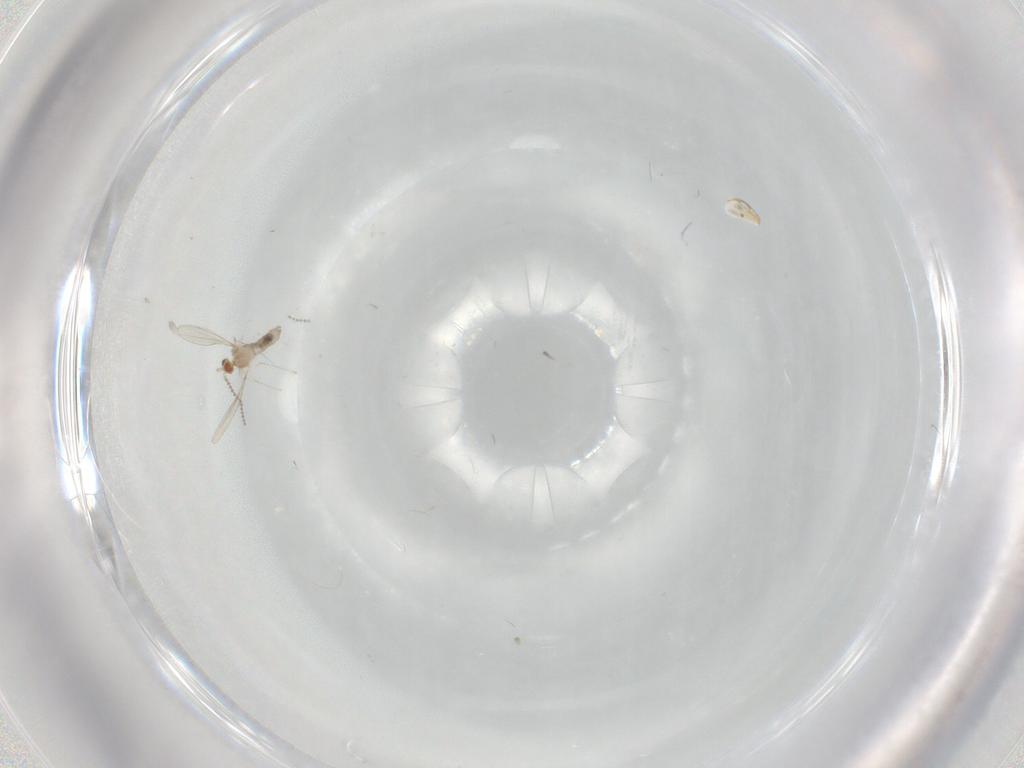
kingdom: Animalia
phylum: Arthropoda
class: Insecta
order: Diptera
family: Cecidomyiidae
